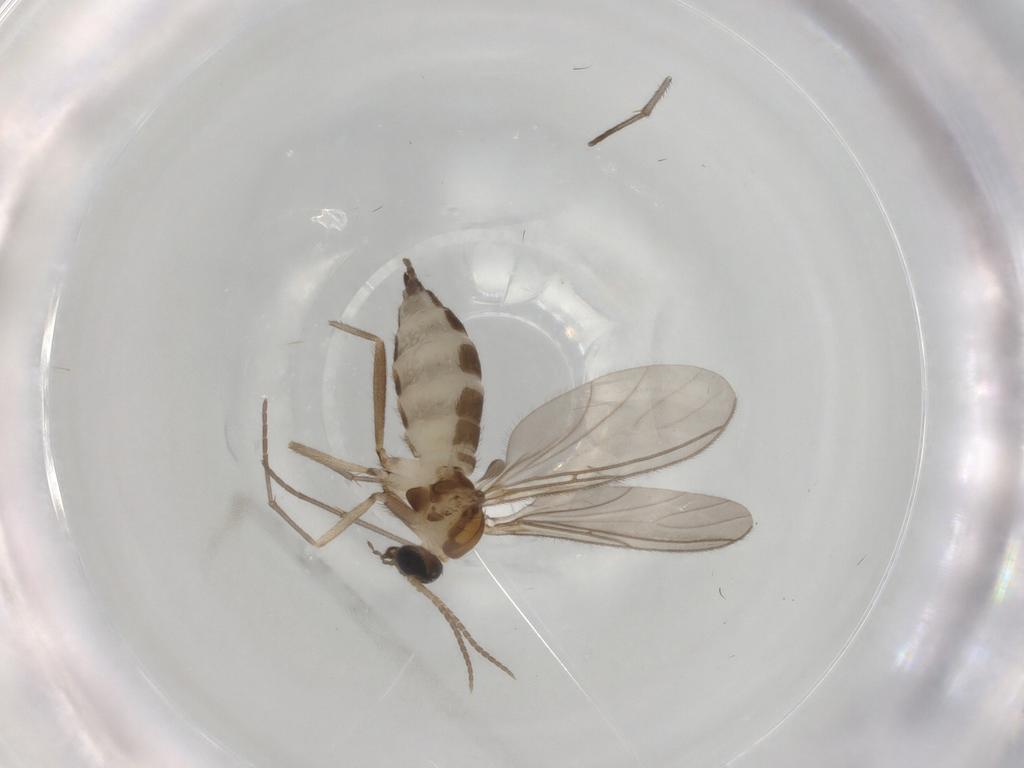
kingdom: Animalia
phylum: Arthropoda
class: Insecta
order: Diptera
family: Sciaridae
